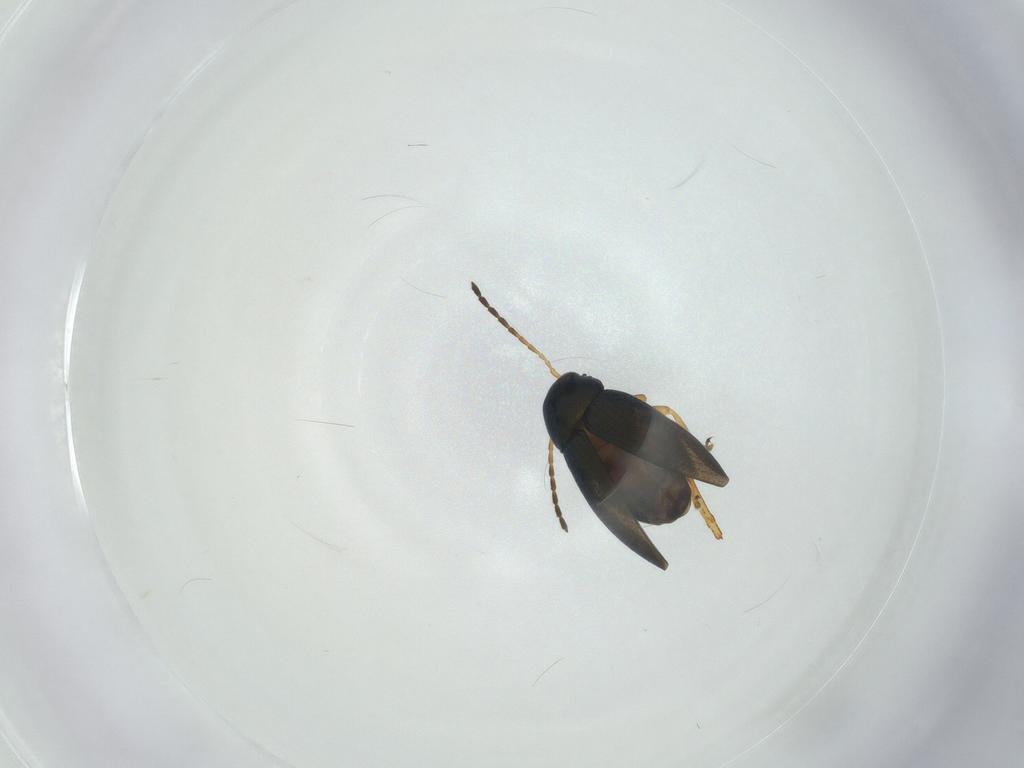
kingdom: Animalia
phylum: Arthropoda
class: Insecta
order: Coleoptera
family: Chrysomelidae
